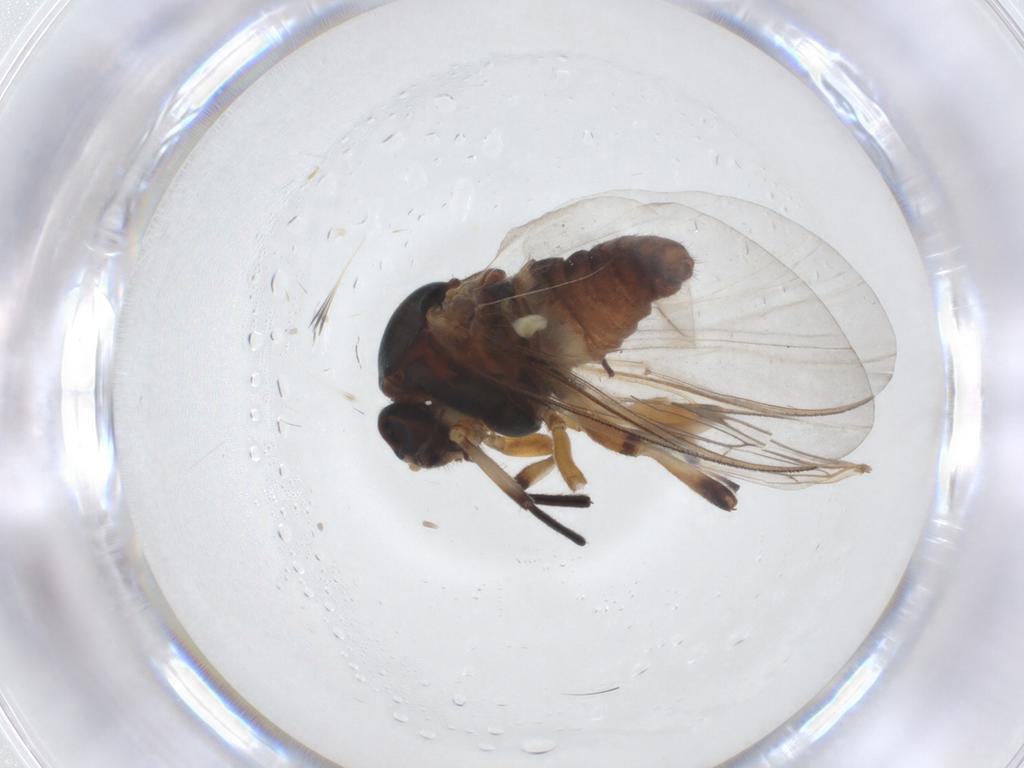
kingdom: Animalia
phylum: Arthropoda
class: Insecta
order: Diptera
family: Simuliidae
